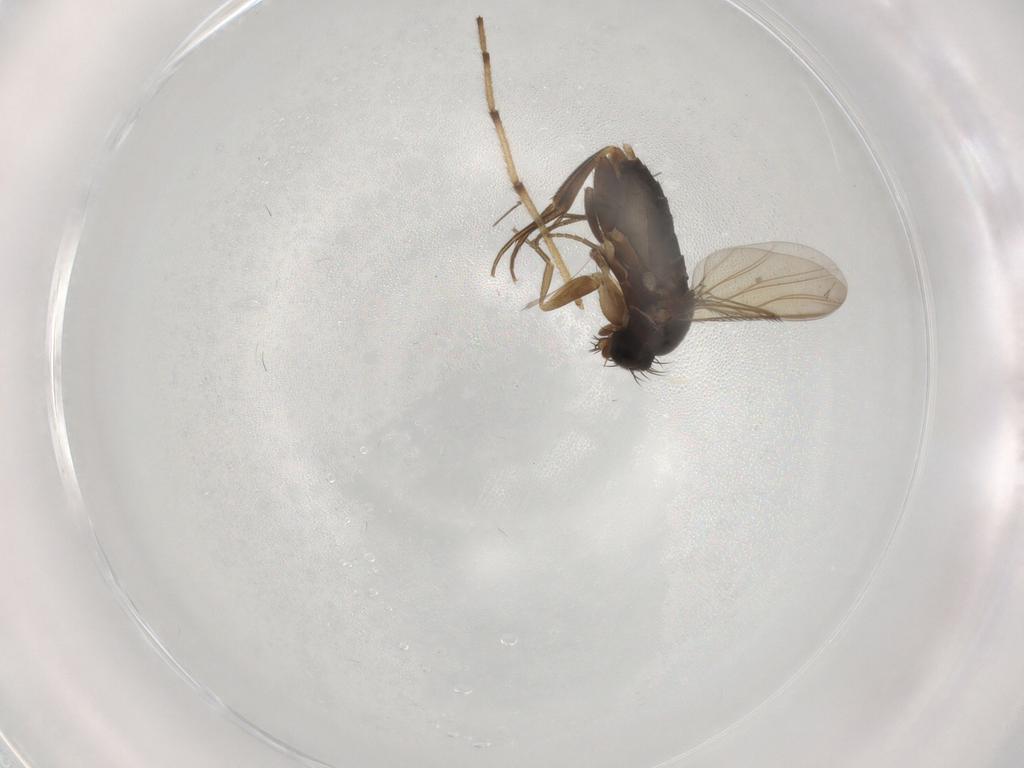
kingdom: Animalia
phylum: Arthropoda
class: Insecta
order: Diptera
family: Phoridae
